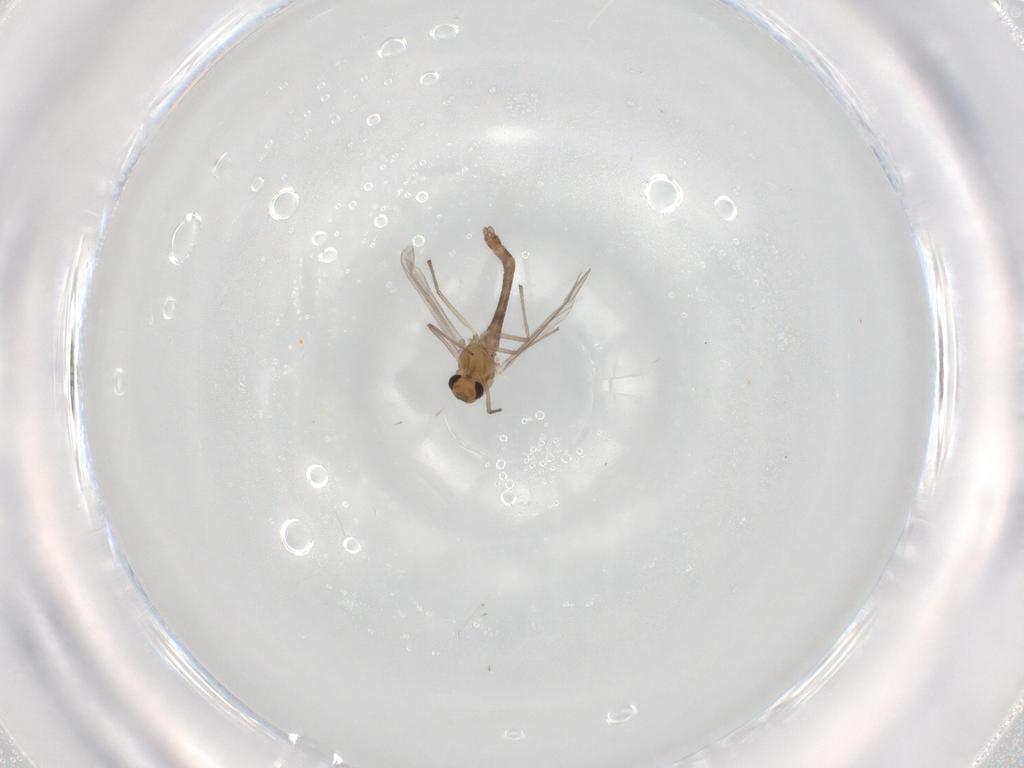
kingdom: Animalia
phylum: Arthropoda
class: Insecta
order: Diptera
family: Chironomidae
